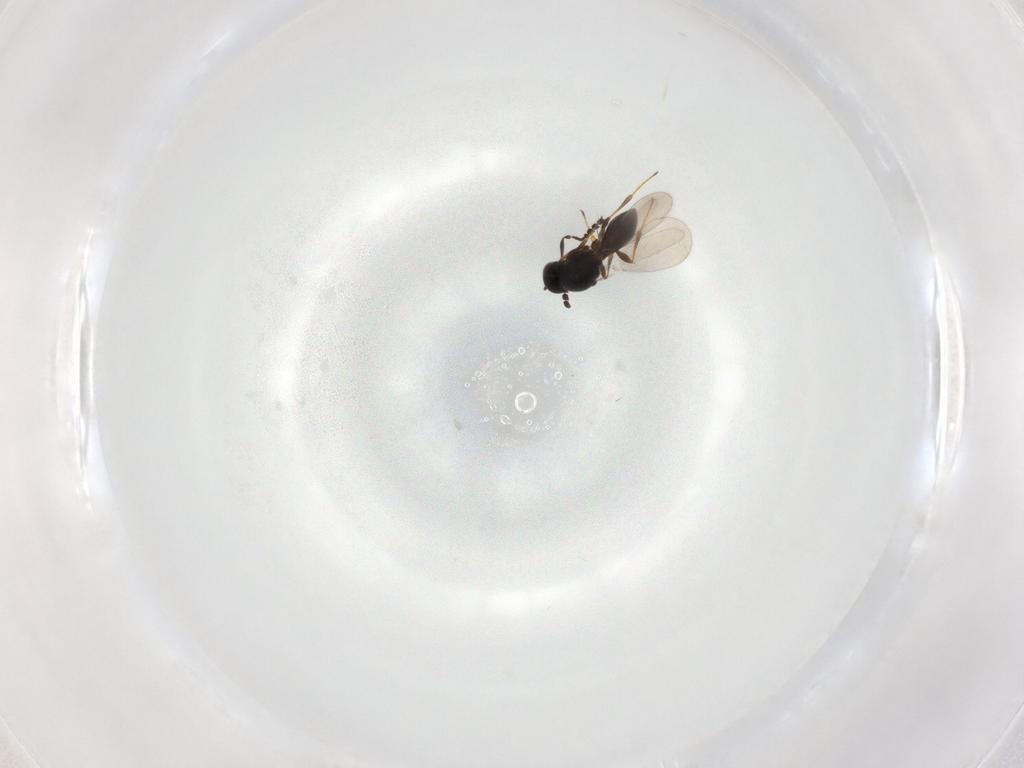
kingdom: Animalia
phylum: Arthropoda
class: Insecta
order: Hymenoptera
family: Platygastridae
